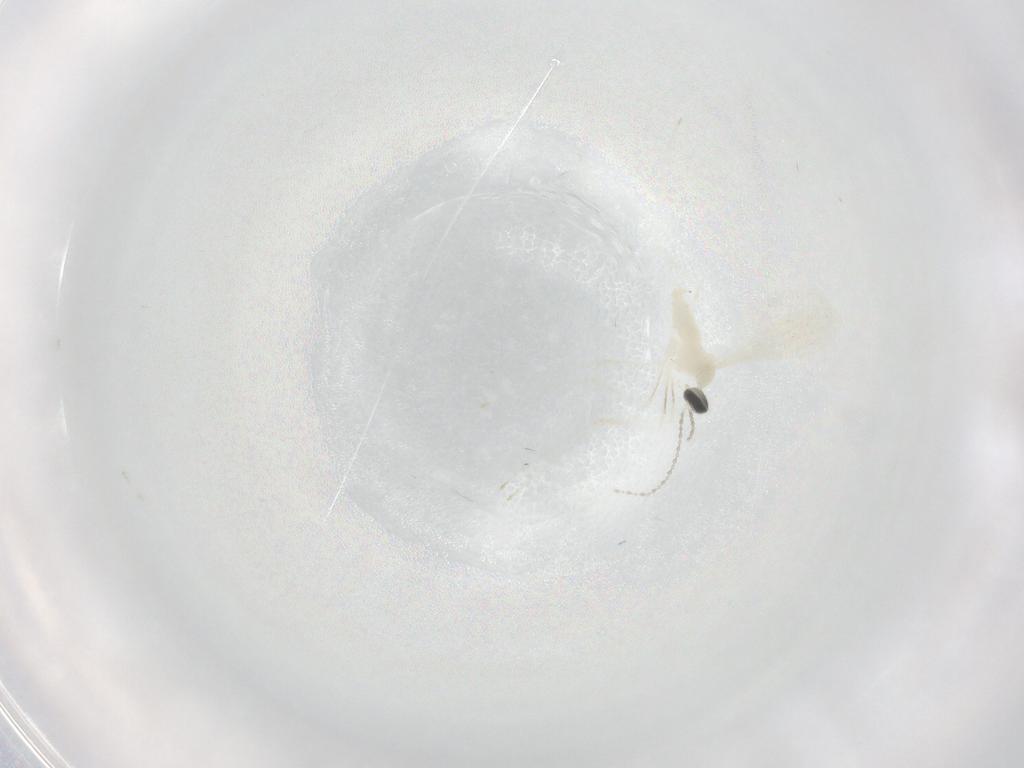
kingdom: Animalia
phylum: Arthropoda
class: Insecta
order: Diptera
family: Cecidomyiidae
